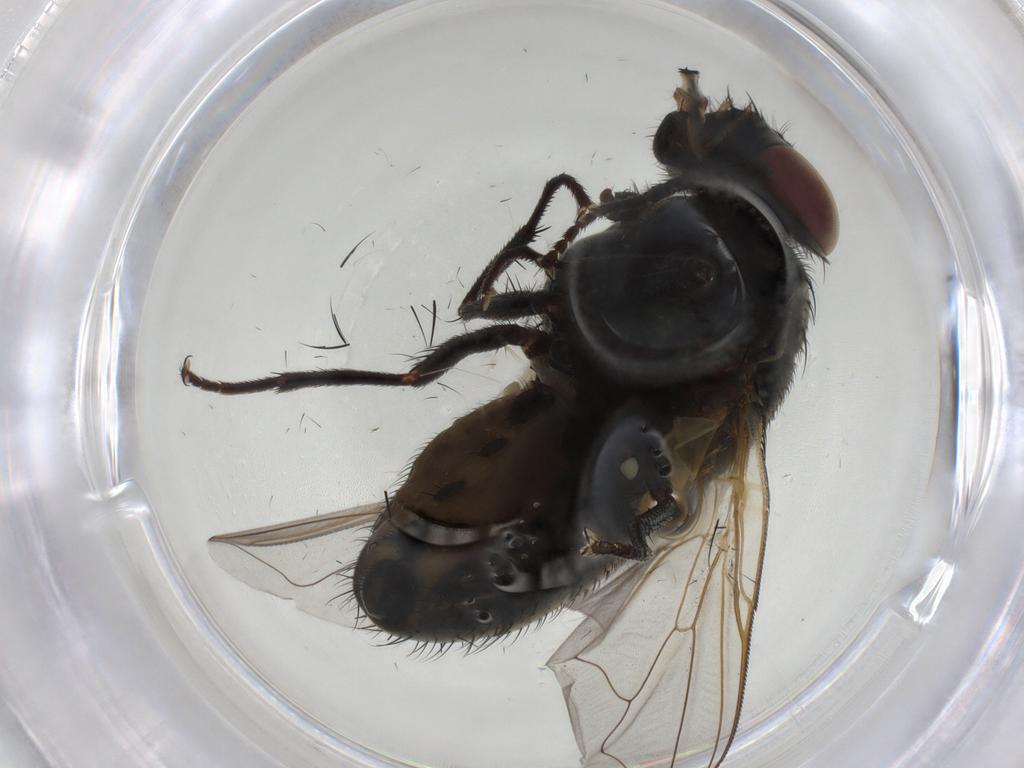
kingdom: Animalia
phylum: Arthropoda
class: Insecta
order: Diptera
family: Muscidae
